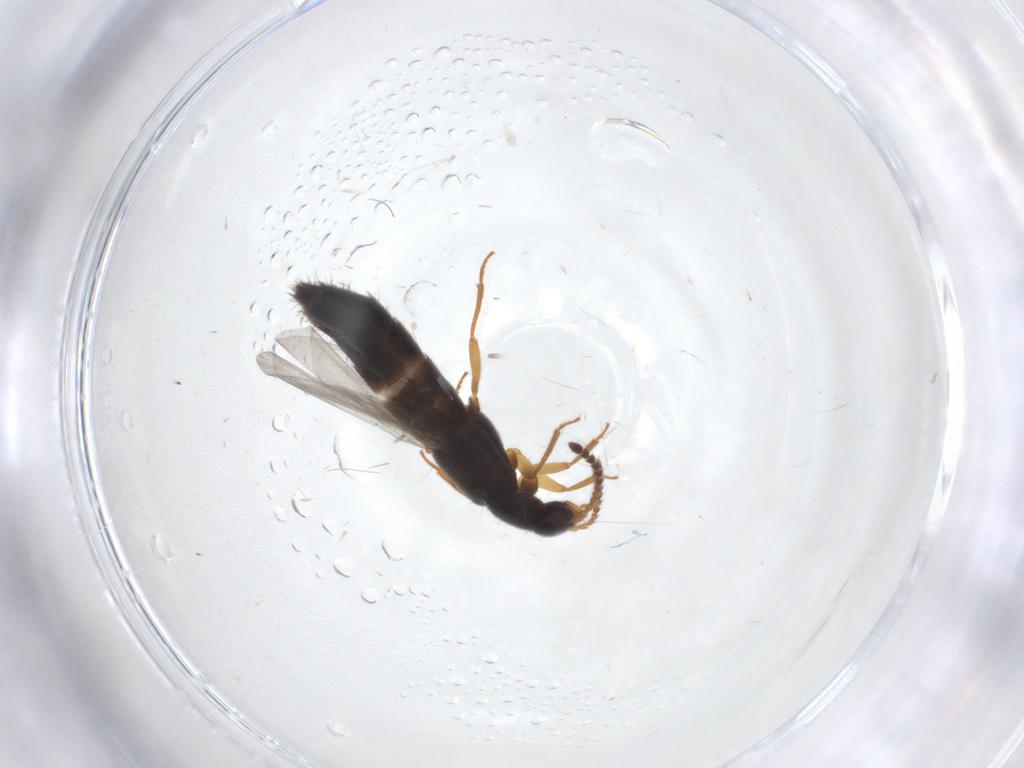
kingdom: Animalia
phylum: Arthropoda
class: Insecta
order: Coleoptera
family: Staphylinidae
